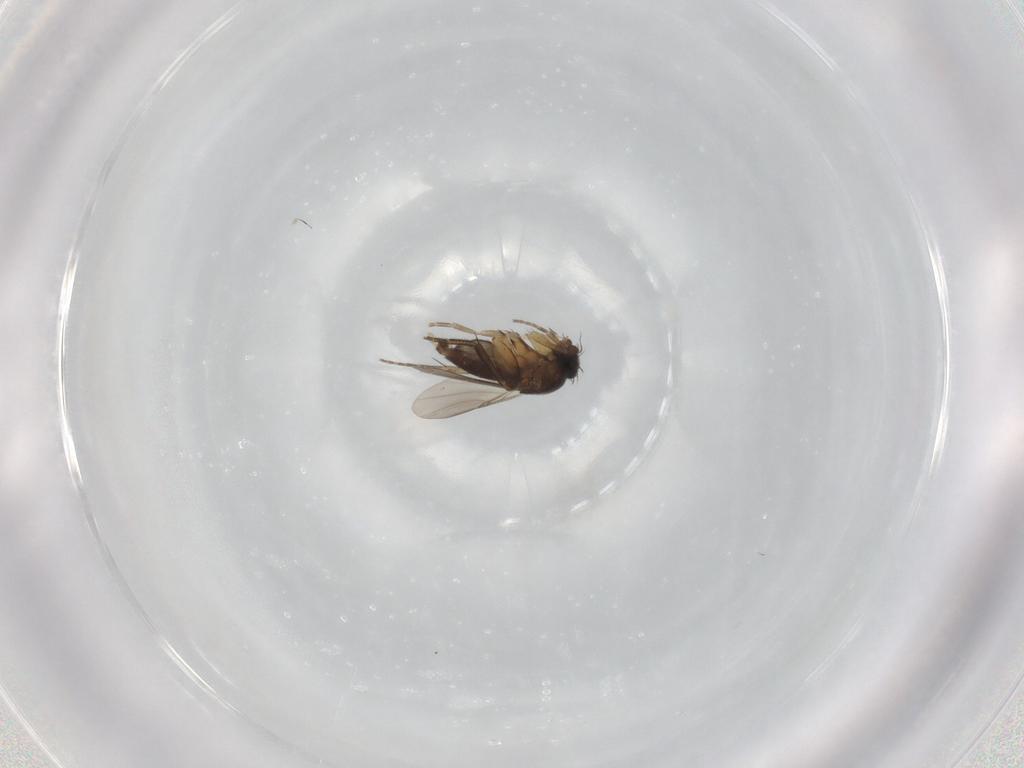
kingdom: Animalia
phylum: Arthropoda
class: Insecta
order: Diptera
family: Phoridae
